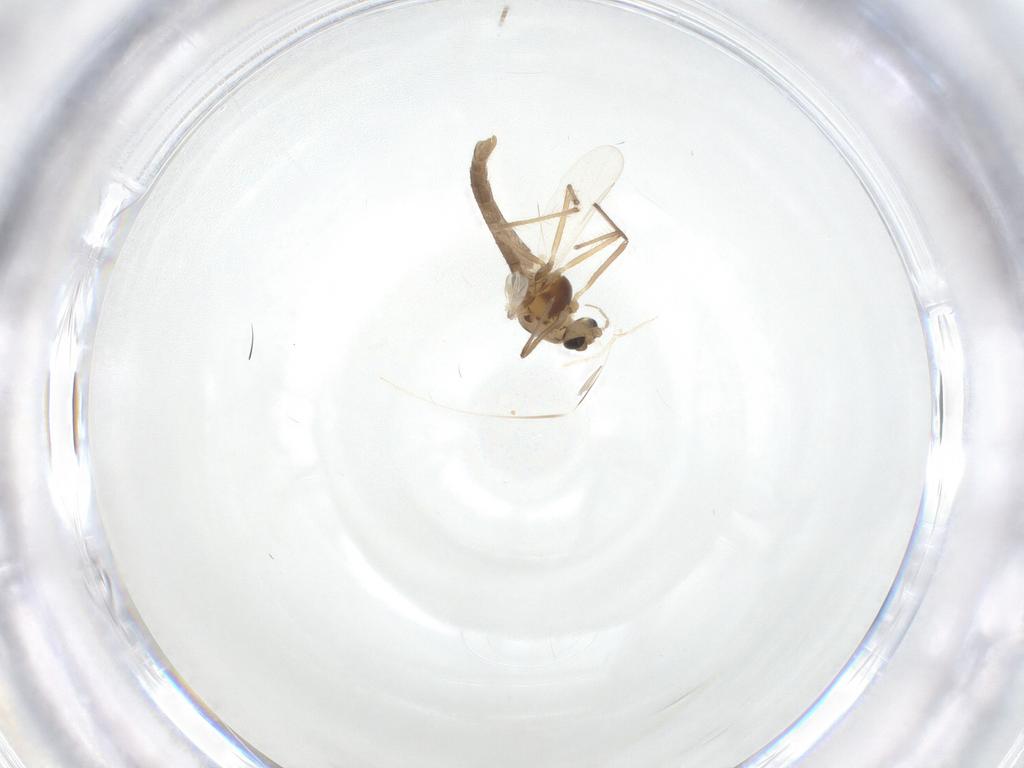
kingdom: Animalia
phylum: Arthropoda
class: Insecta
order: Diptera
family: Chironomidae
